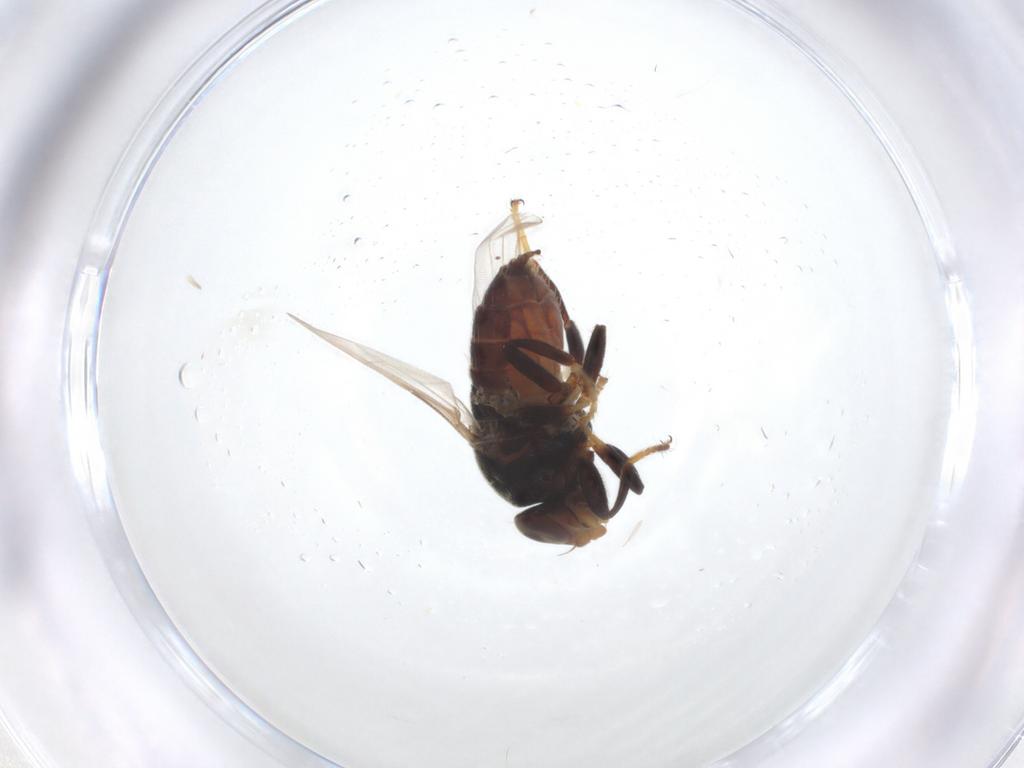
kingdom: Animalia
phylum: Arthropoda
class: Insecta
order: Diptera
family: Chloropidae
